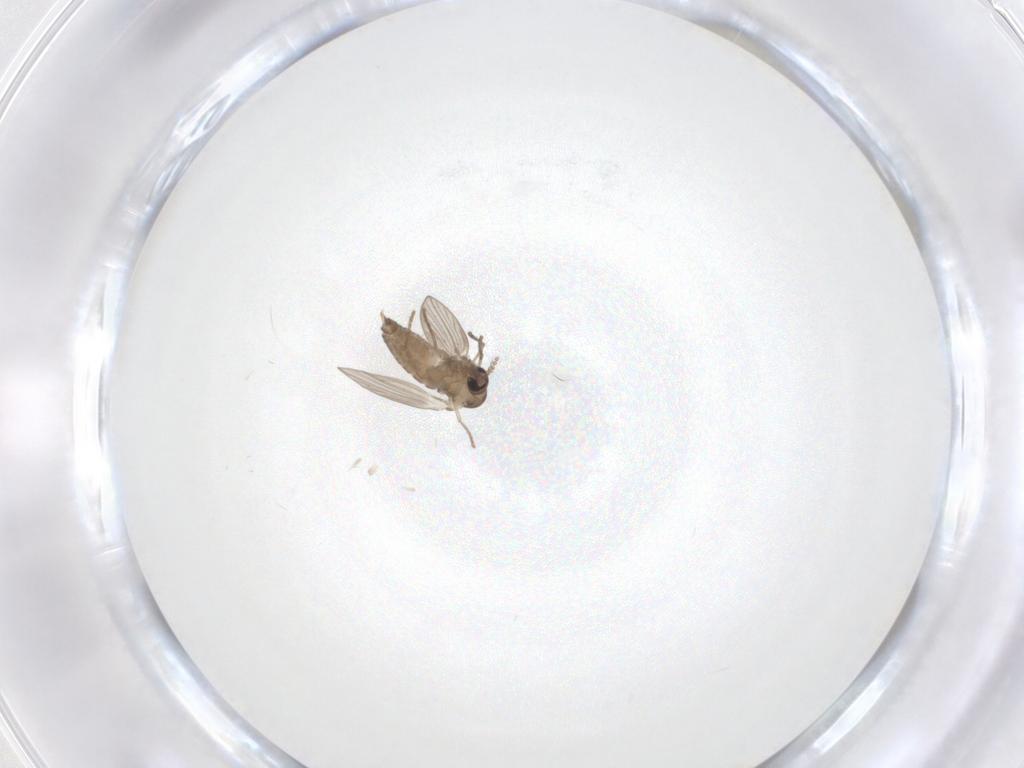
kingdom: Animalia
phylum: Arthropoda
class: Insecta
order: Diptera
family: Psychodidae
